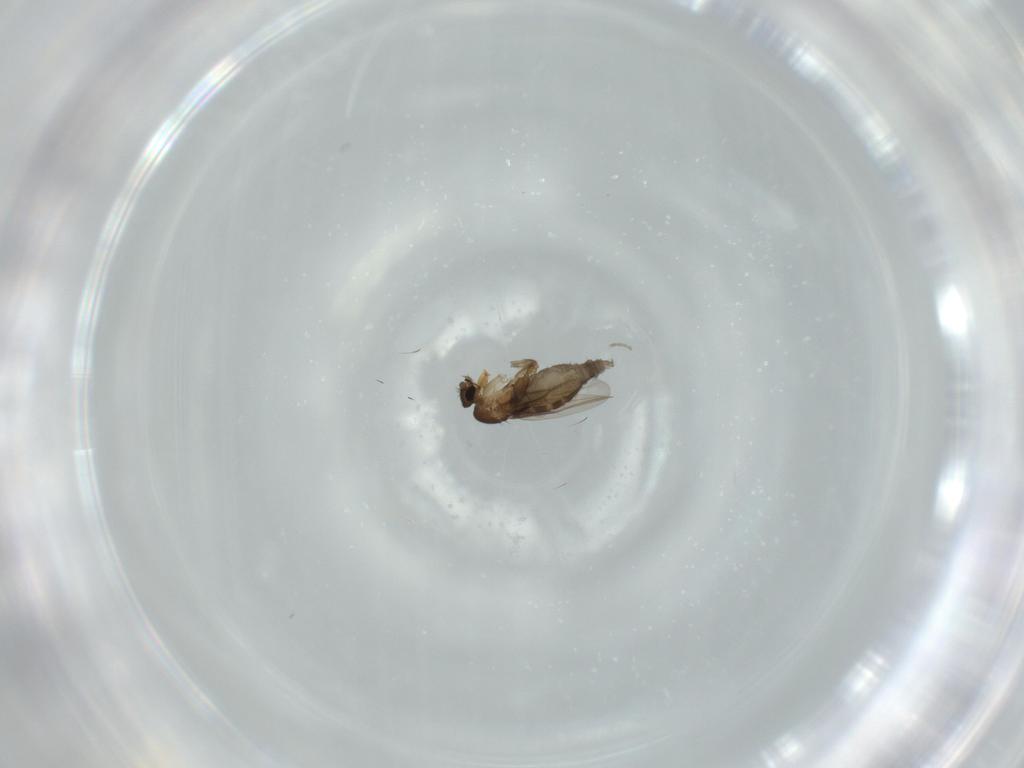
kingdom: Animalia
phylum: Arthropoda
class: Insecta
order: Diptera
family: Phoridae
